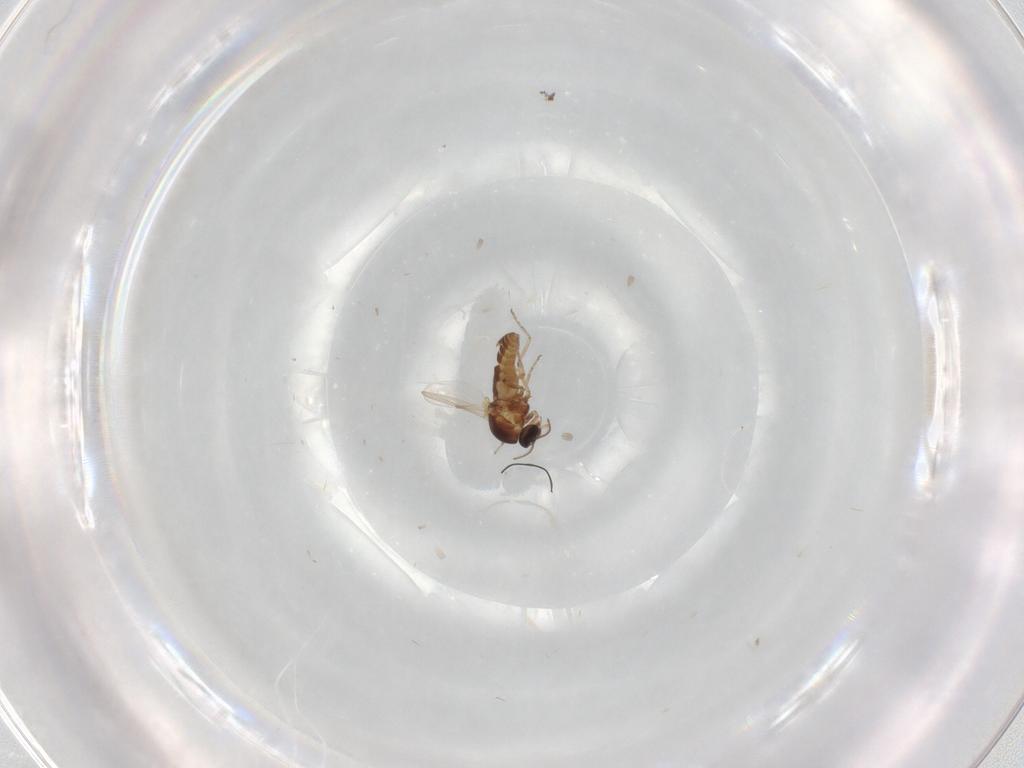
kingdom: Animalia
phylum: Arthropoda
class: Insecta
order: Diptera
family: Ceratopogonidae
